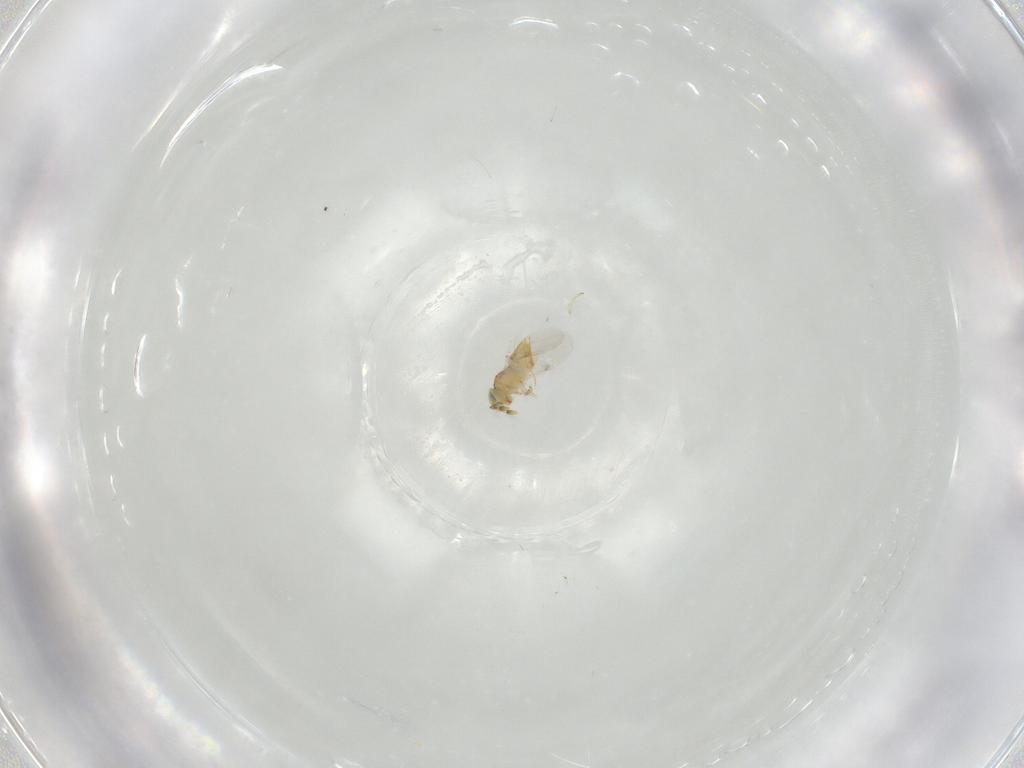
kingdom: Animalia
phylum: Arthropoda
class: Insecta
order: Hymenoptera
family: Encyrtidae
